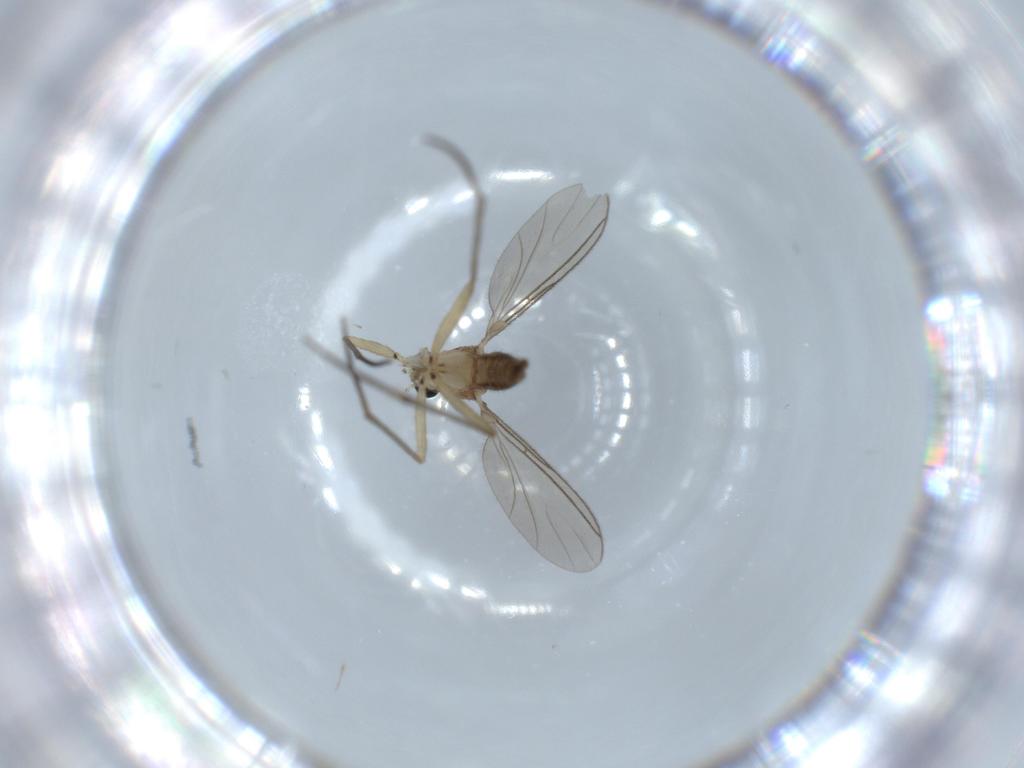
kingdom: Animalia
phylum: Arthropoda
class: Insecta
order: Diptera
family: Sciaridae
